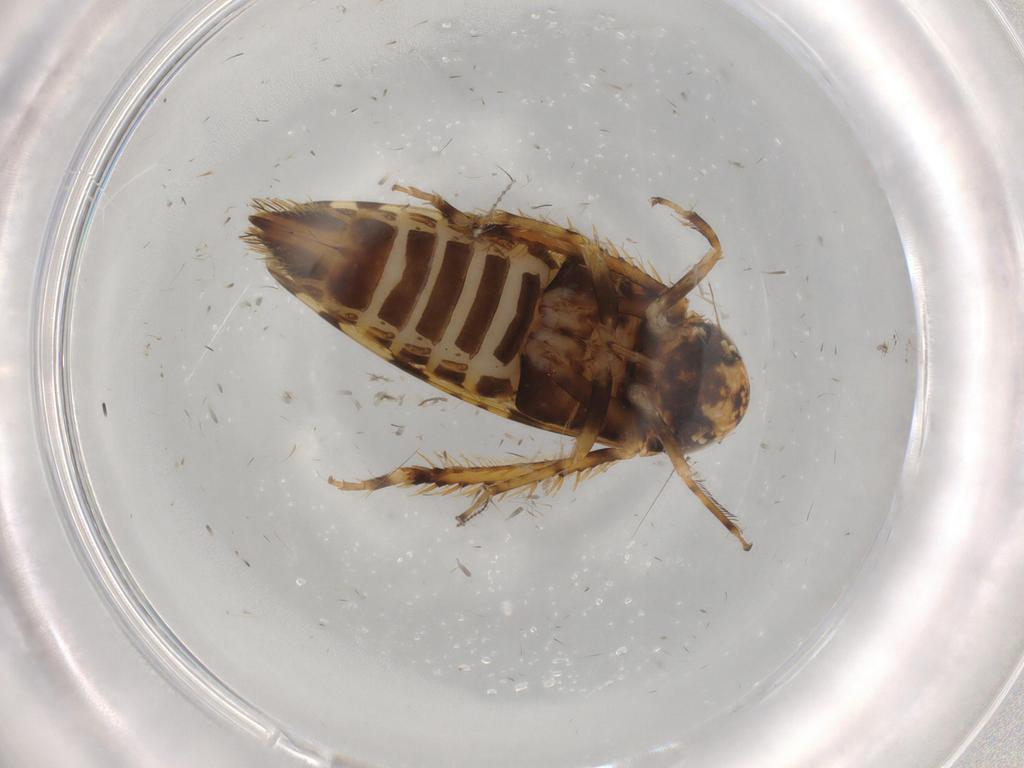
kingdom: Animalia
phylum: Arthropoda
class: Insecta
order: Hemiptera
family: Cicadellidae
